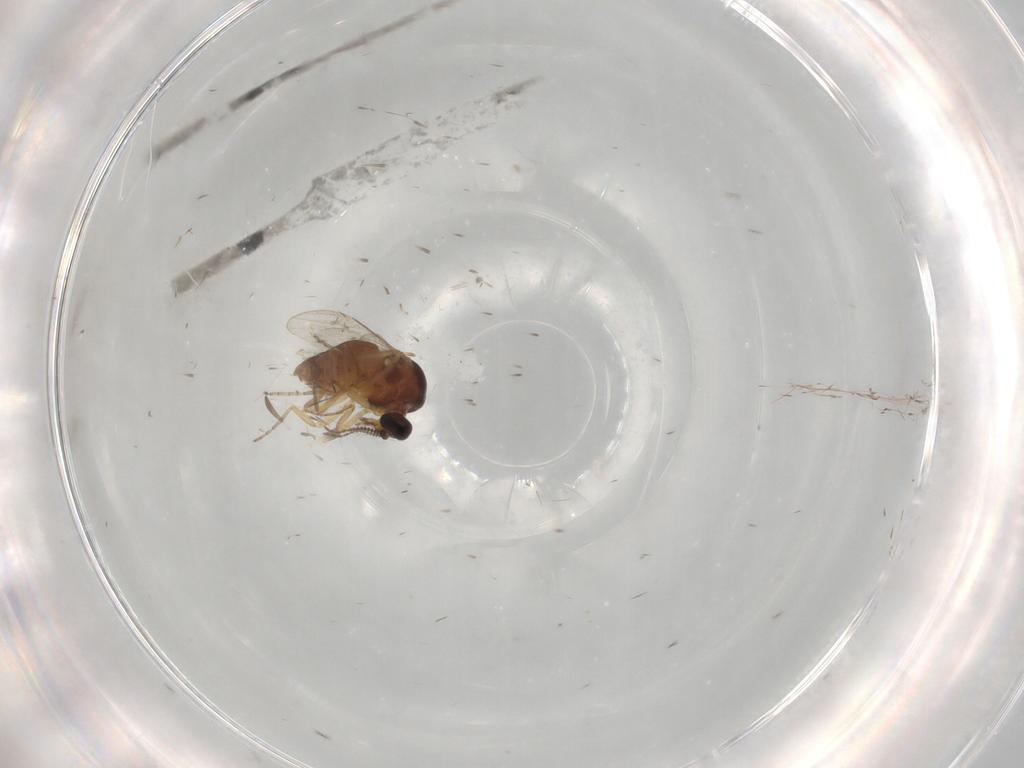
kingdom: Animalia
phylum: Arthropoda
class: Insecta
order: Diptera
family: Ceratopogonidae
